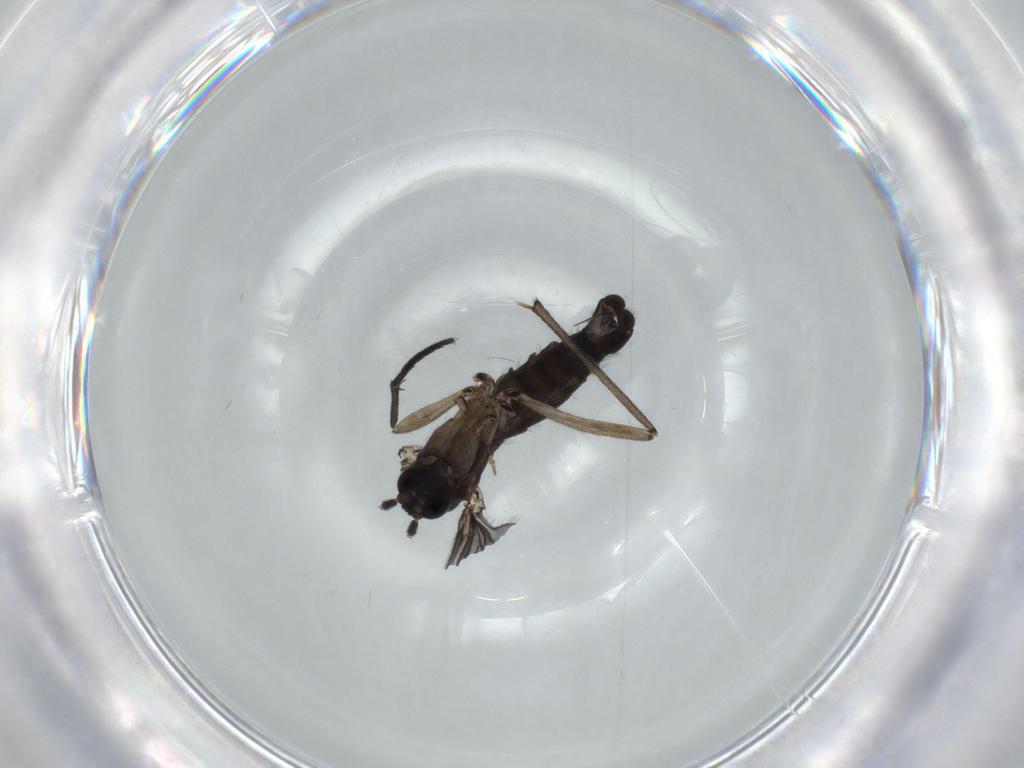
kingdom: Animalia
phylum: Arthropoda
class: Insecta
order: Diptera
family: Sciaridae
